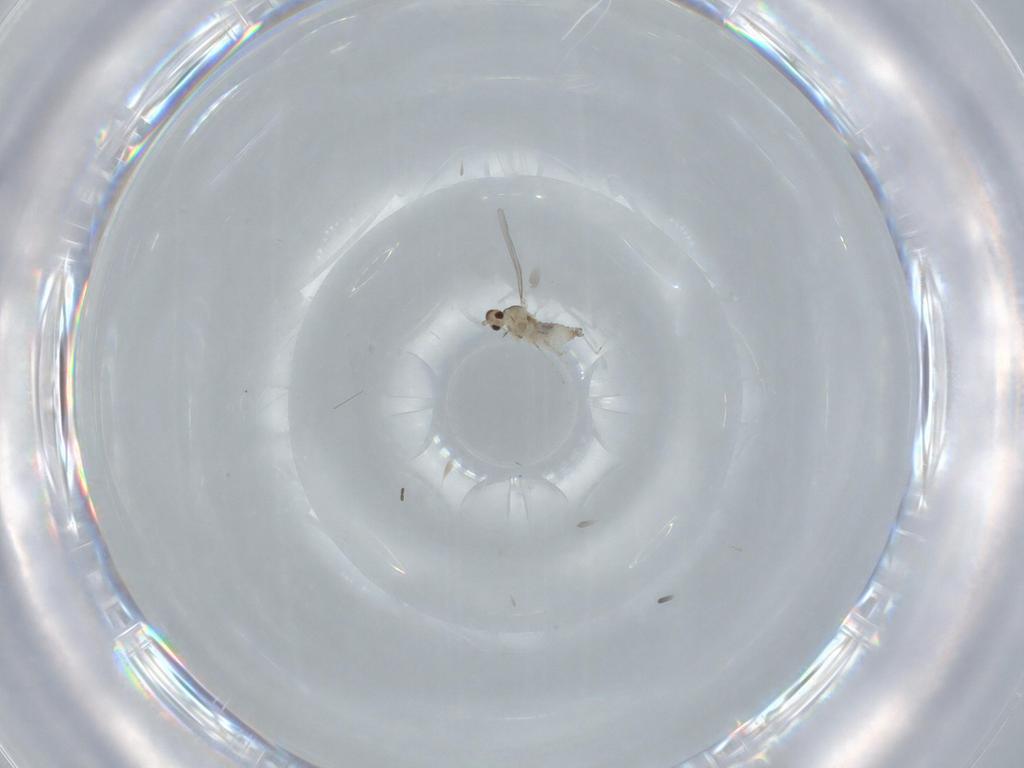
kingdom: Animalia
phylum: Arthropoda
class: Insecta
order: Diptera
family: Cecidomyiidae
